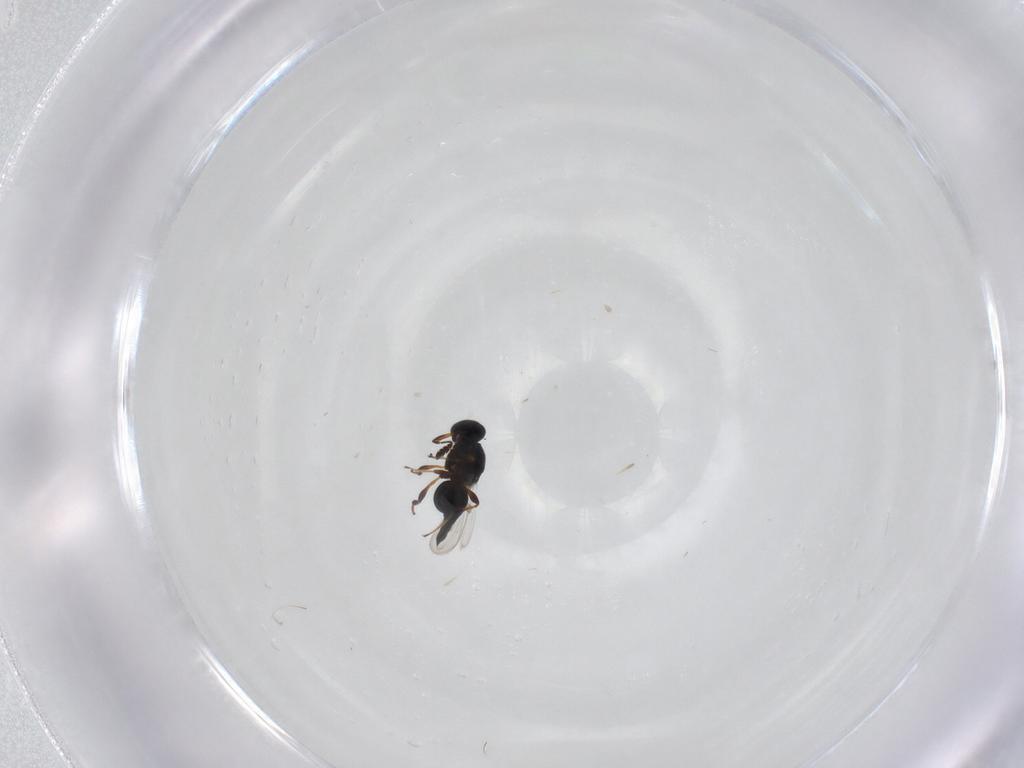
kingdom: Animalia
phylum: Arthropoda
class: Insecta
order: Hymenoptera
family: Platygastridae
